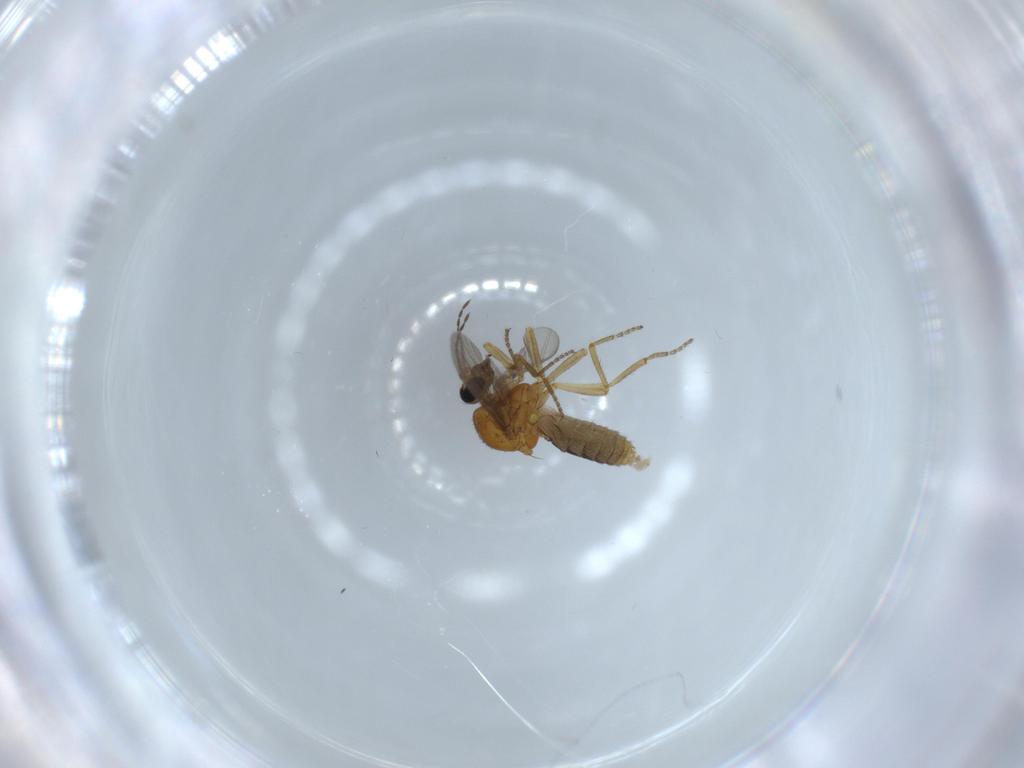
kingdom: Animalia
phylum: Arthropoda
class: Insecta
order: Diptera
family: Ceratopogonidae
